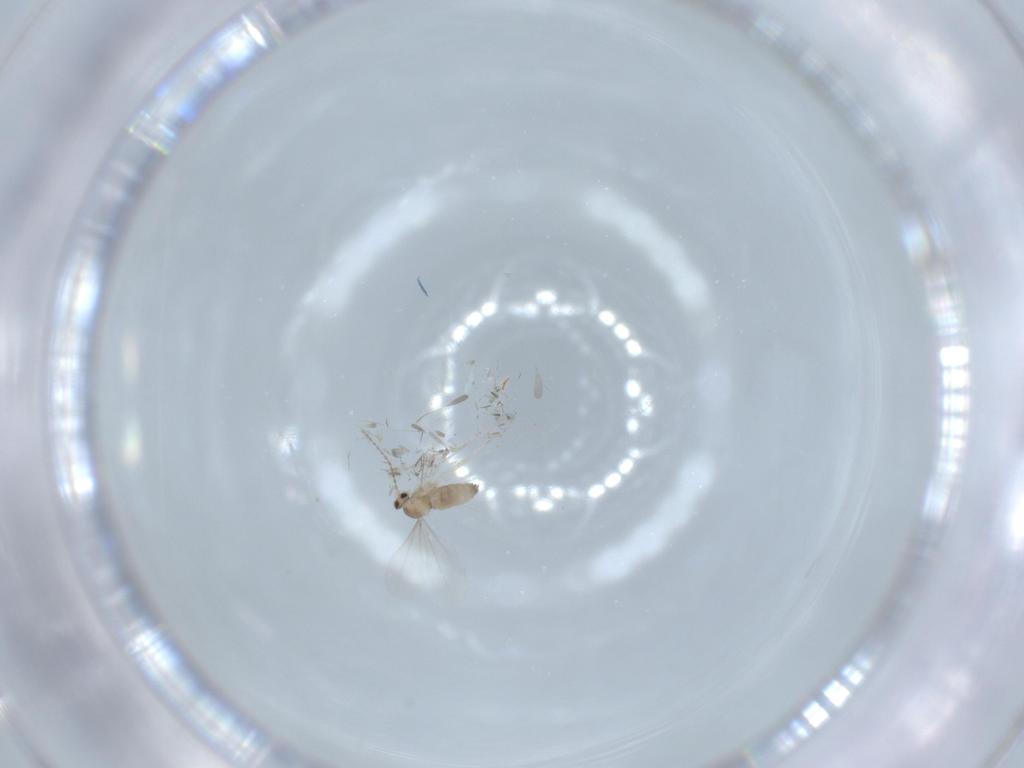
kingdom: Animalia
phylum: Arthropoda
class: Insecta
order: Diptera
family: Cecidomyiidae
